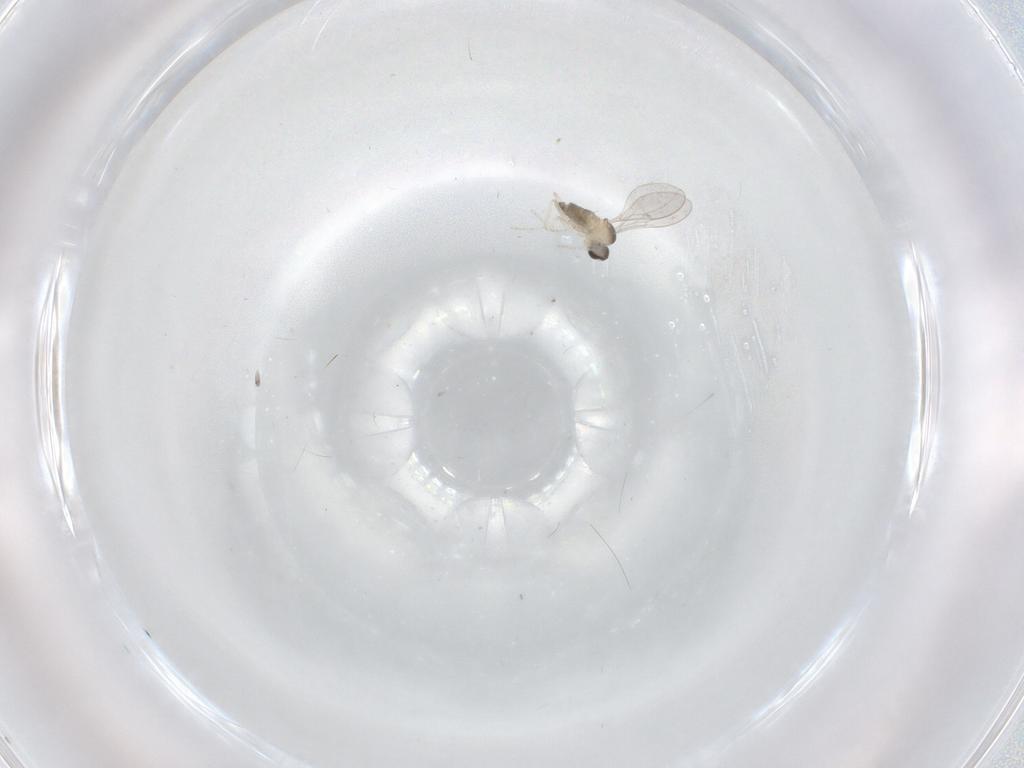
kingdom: Animalia
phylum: Arthropoda
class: Insecta
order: Diptera
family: Cecidomyiidae
